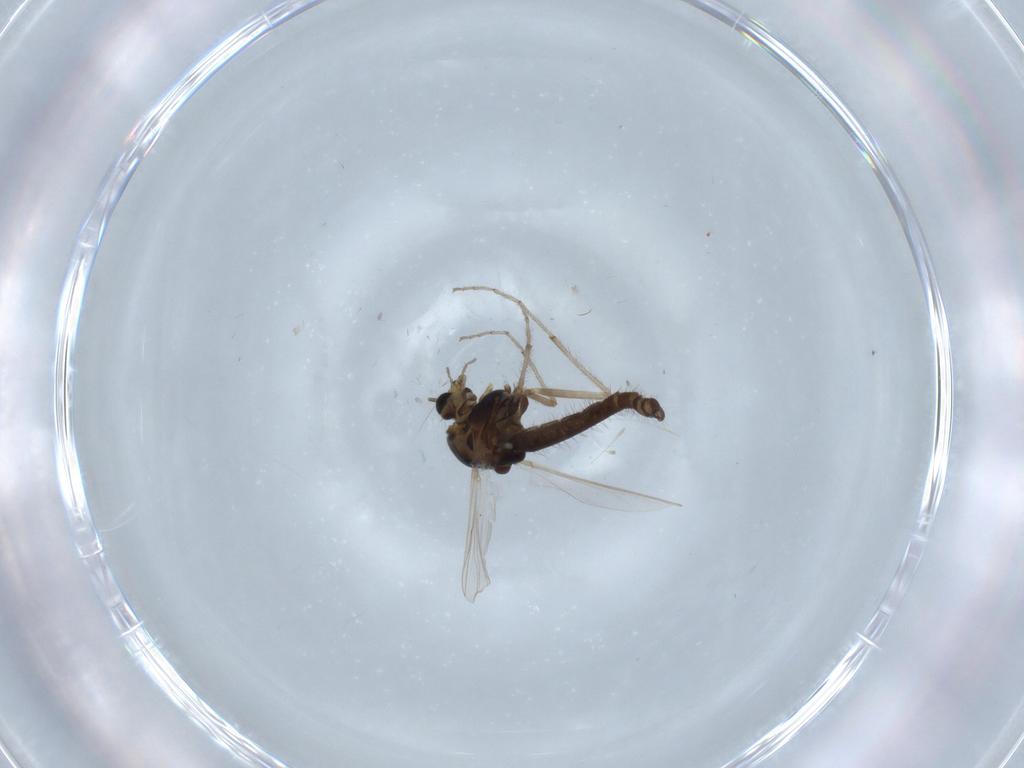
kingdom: Animalia
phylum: Arthropoda
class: Insecta
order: Diptera
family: Chironomidae
